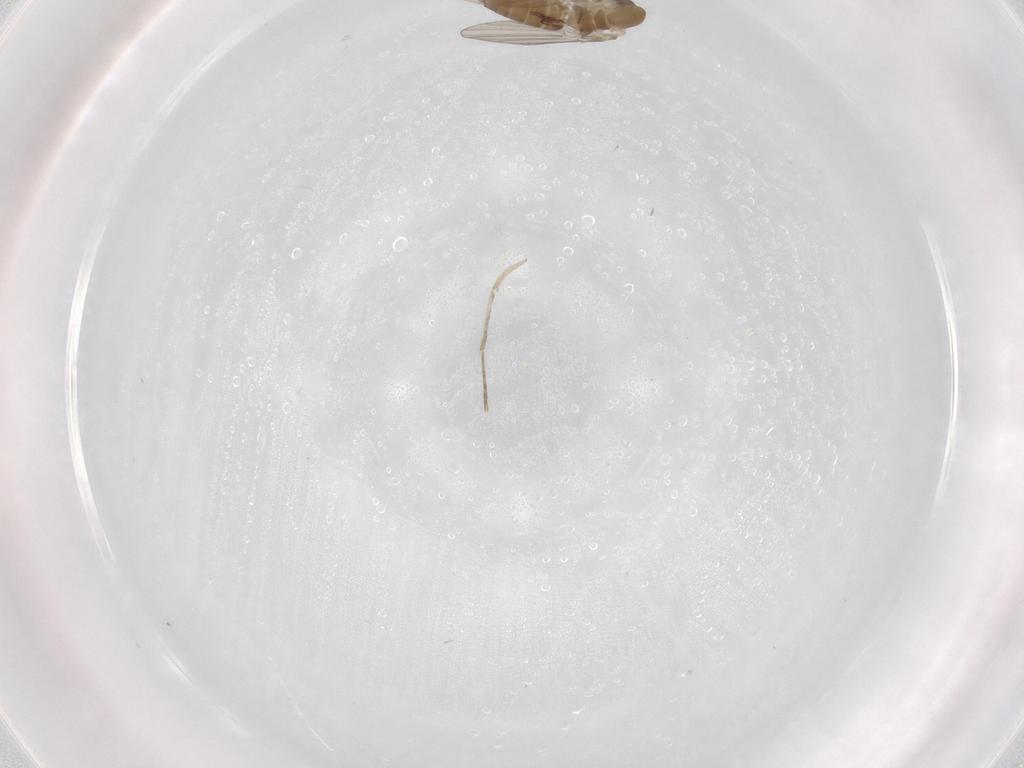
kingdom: Animalia
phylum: Arthropoda
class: Insecta
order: Diptera
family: Psychodidae
